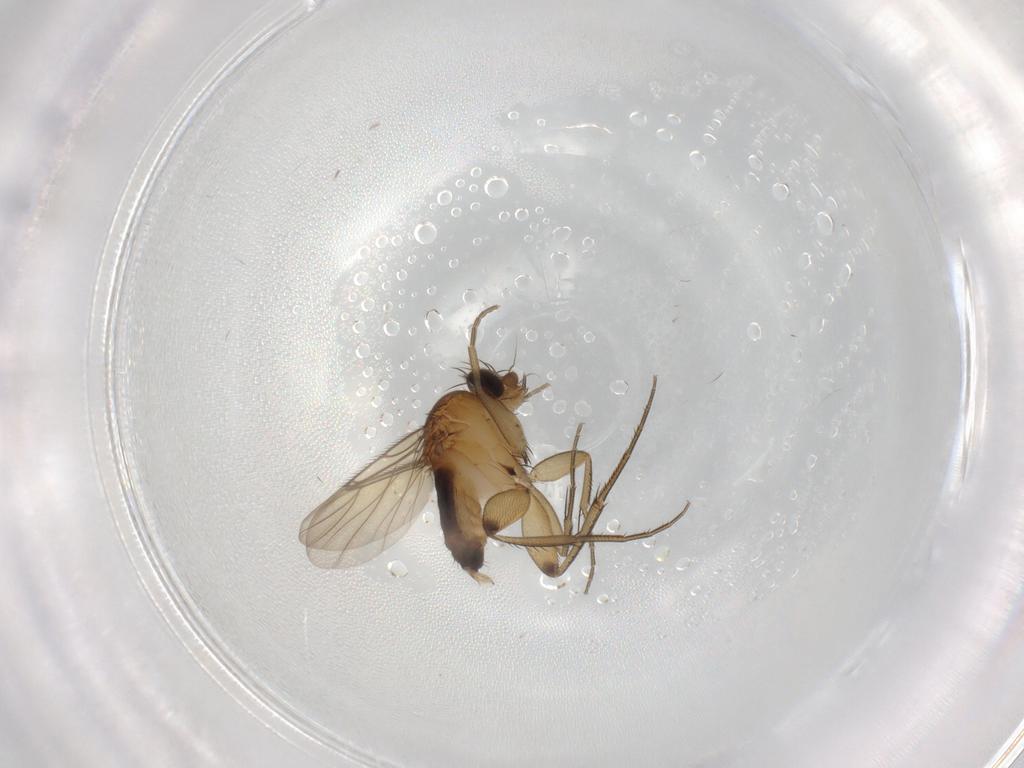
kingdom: Animalia
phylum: Arthropoda
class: Insecta
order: Diptera
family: Phoridae
